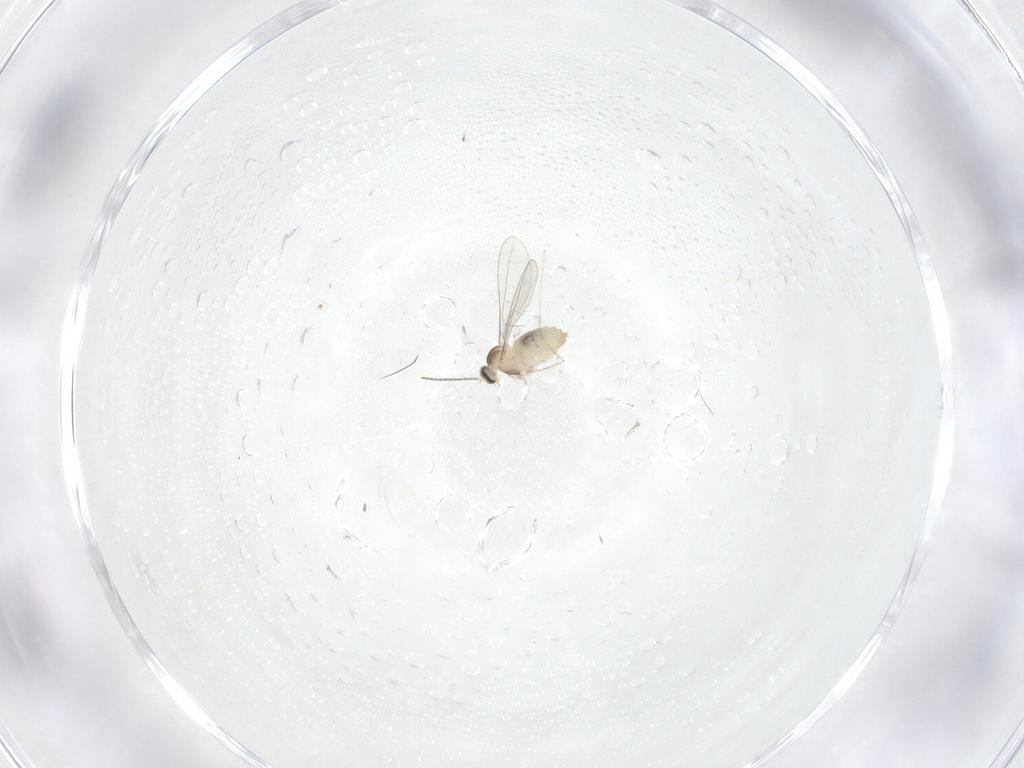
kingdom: Animalia
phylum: Arthropoda
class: Insecta
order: Diptera
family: Cecidomyiidae
